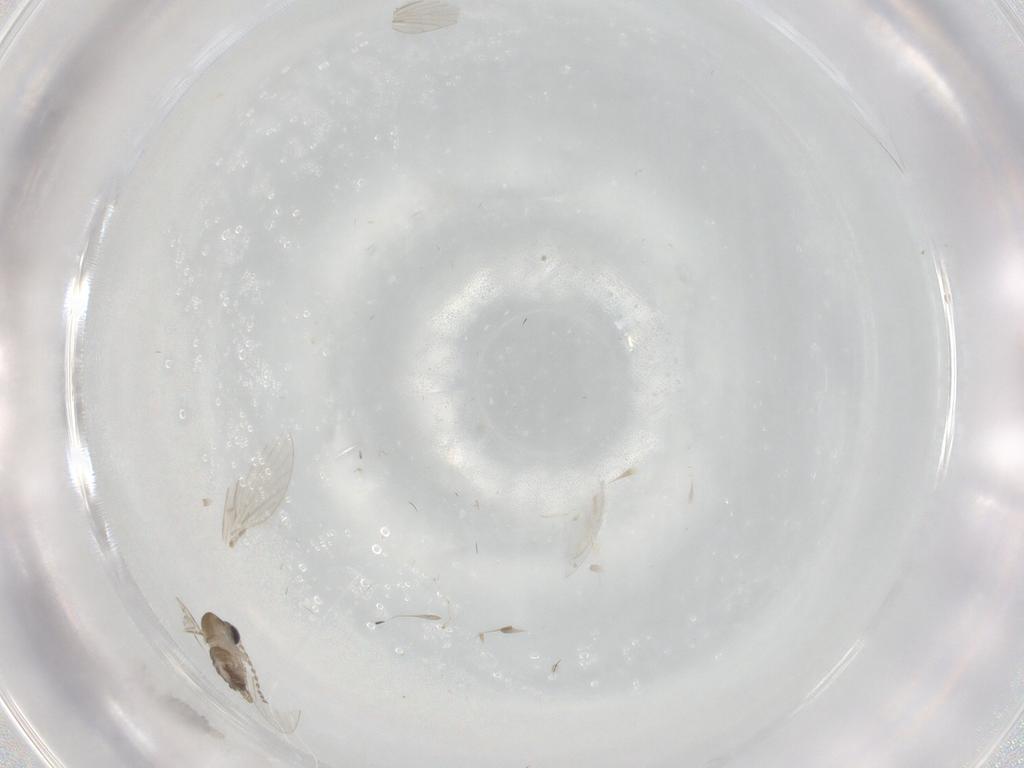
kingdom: Animalia
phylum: Arthropoda
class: Insecta
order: Diptera
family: Cecidomyiidae
